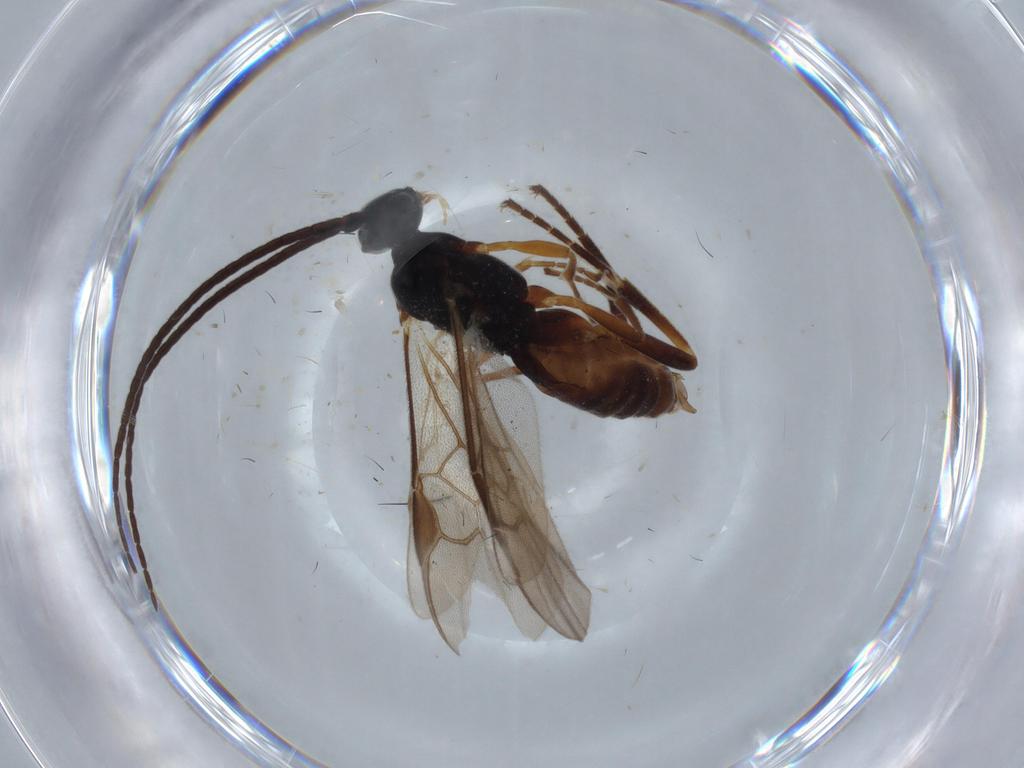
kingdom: Animalia
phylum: Arthropoda
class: Insecta
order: Hymenoptera
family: Braconidae
